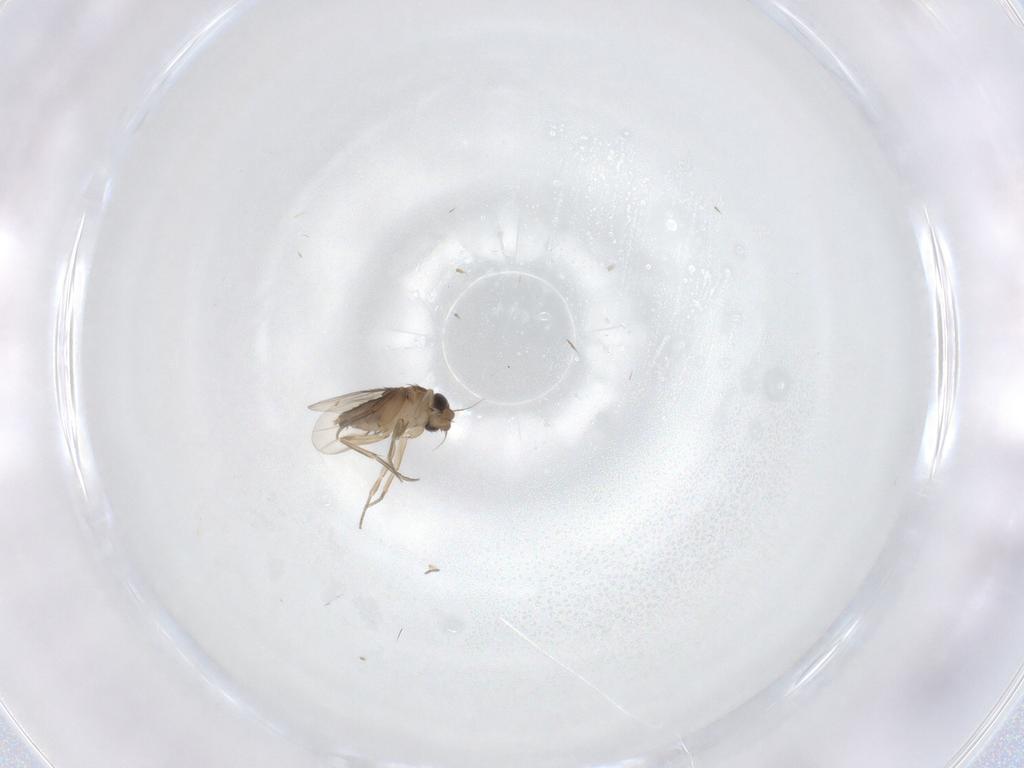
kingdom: Animalia
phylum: Arthropoda
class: Insecta
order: Diptera
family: Phoridae
